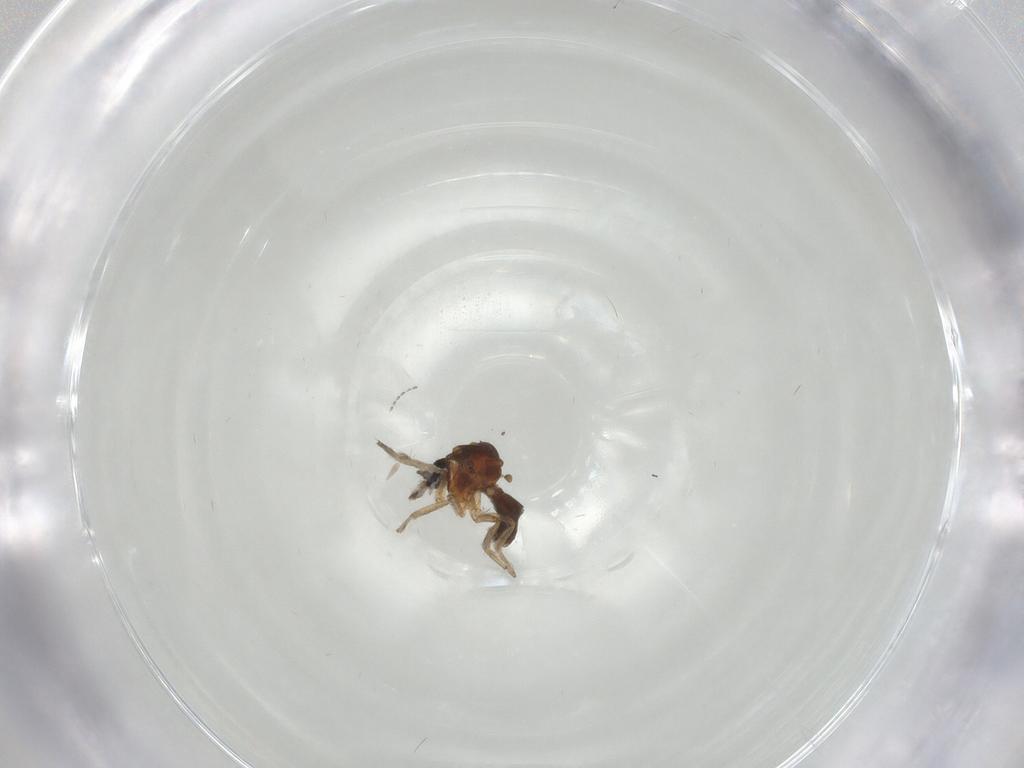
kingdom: Animalia
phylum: Arthropoda
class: Insecta
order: Diptera
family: Ceratopogonidae
